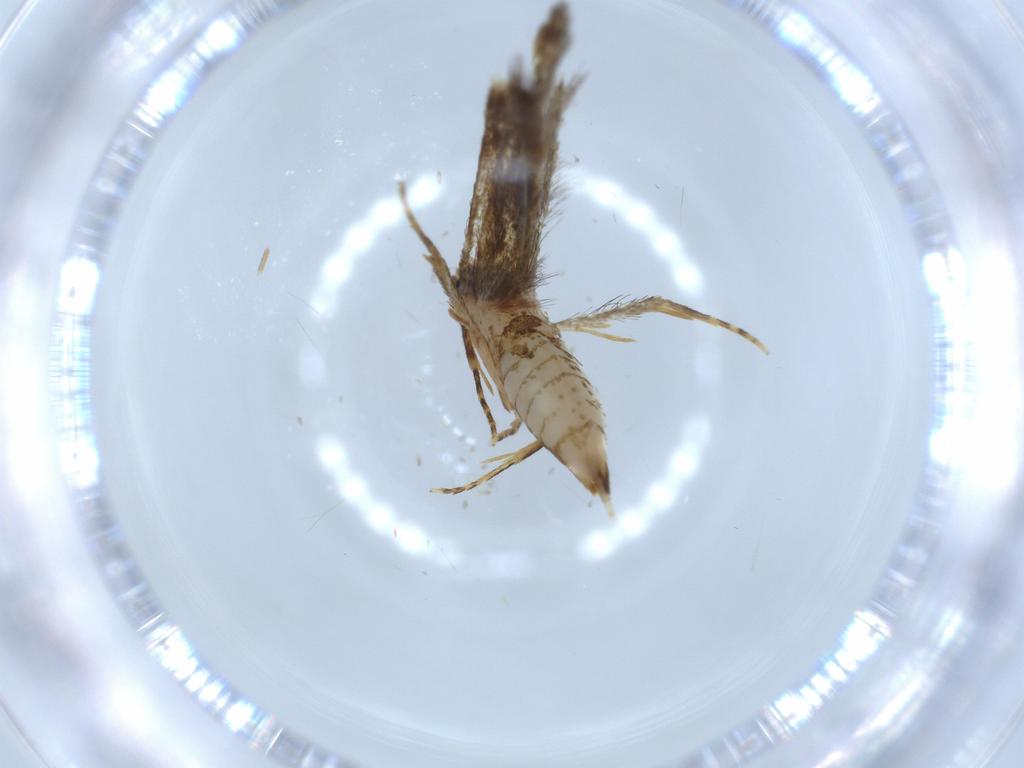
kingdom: Animalia
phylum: Arthropoda
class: Insecta
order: Lepidoptera
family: Tineidae
